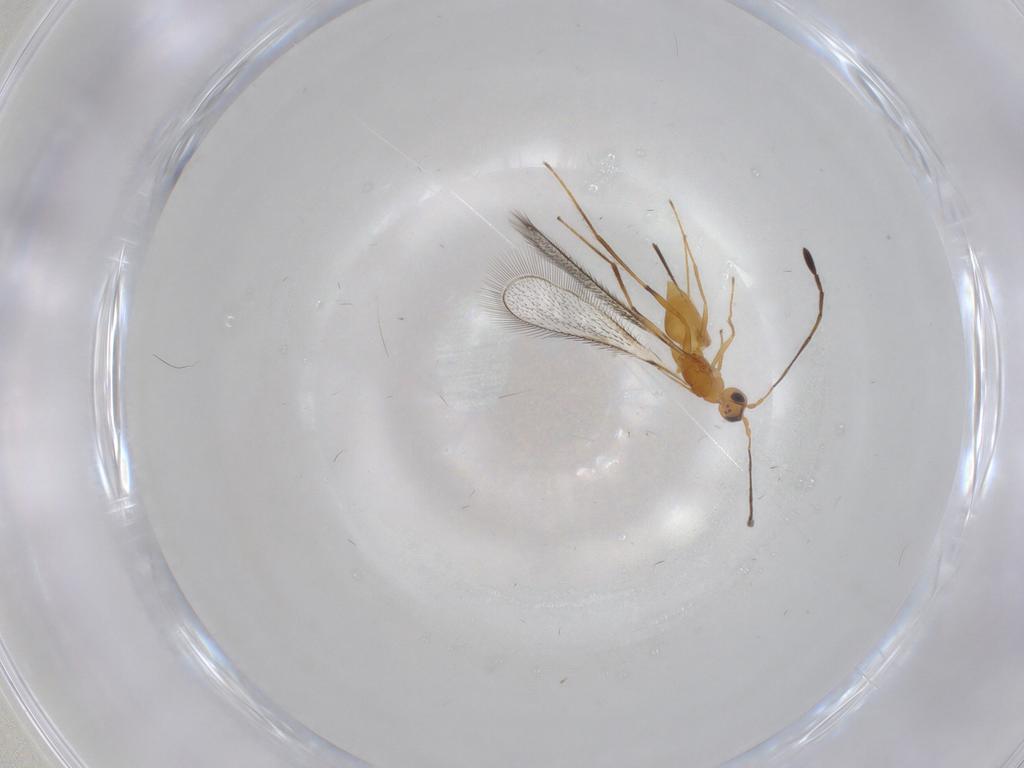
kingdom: Animalia
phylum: Arthropoda
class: Insecta
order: Hymenoptera
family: Mymaridae
